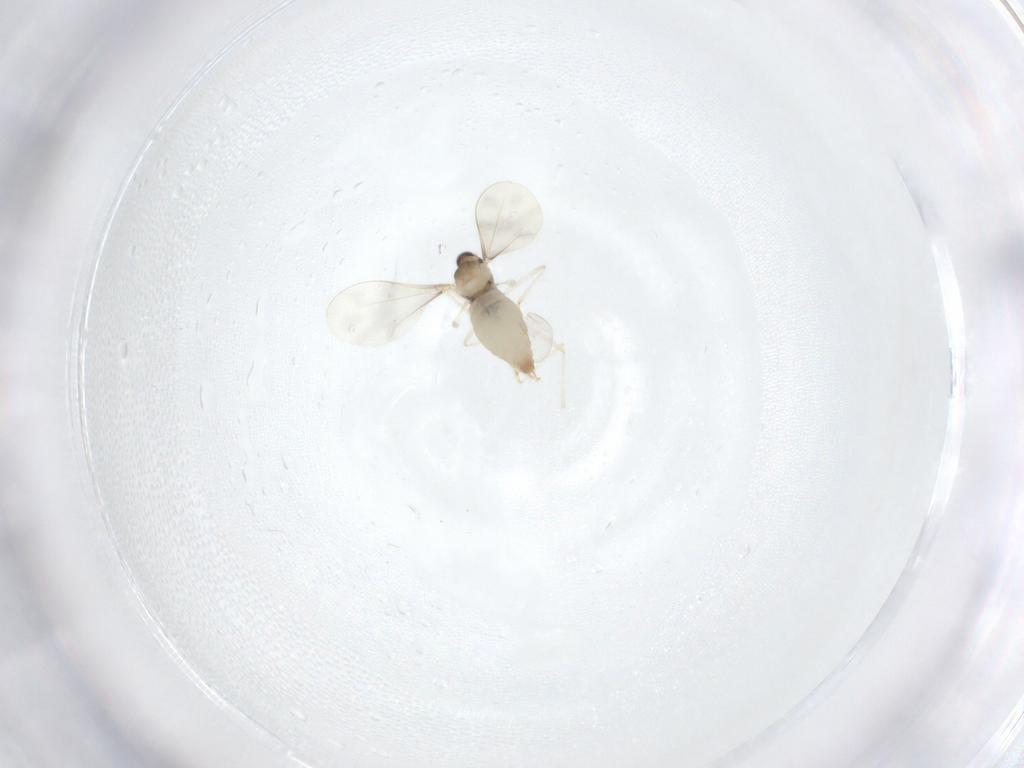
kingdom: Animalia
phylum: Arthropoda
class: Insecta
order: Diptera
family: Cecidomyiidae
